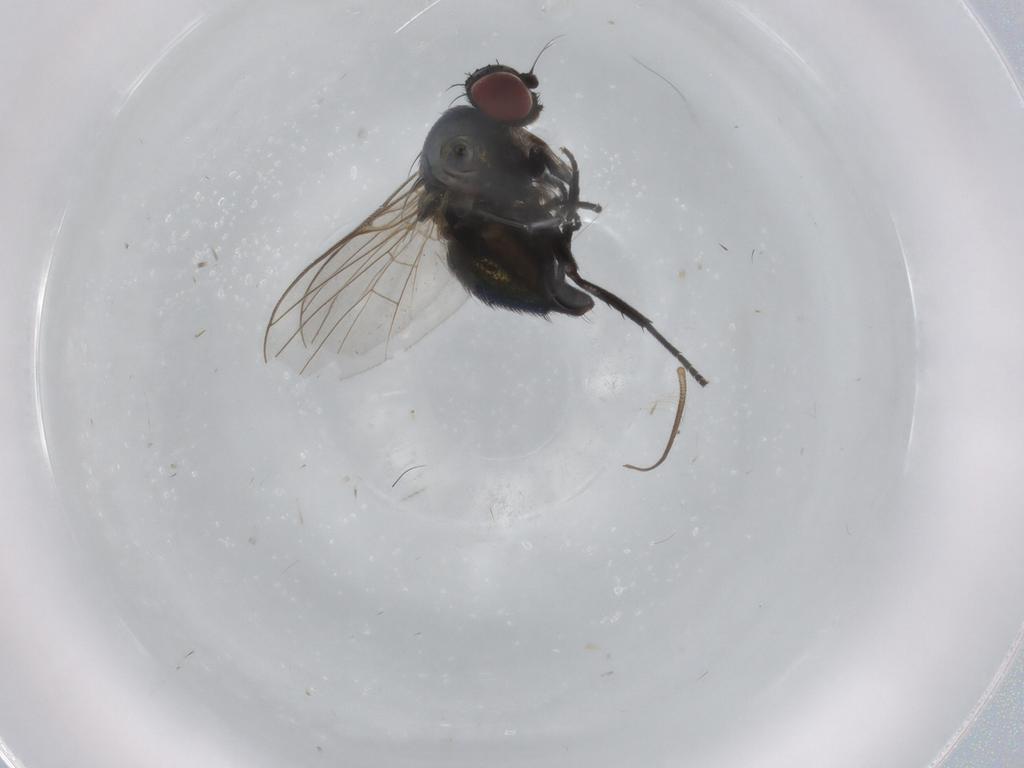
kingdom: Animalia
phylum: Arthropoda
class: Insecta
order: Diptera
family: Agromyzidae
